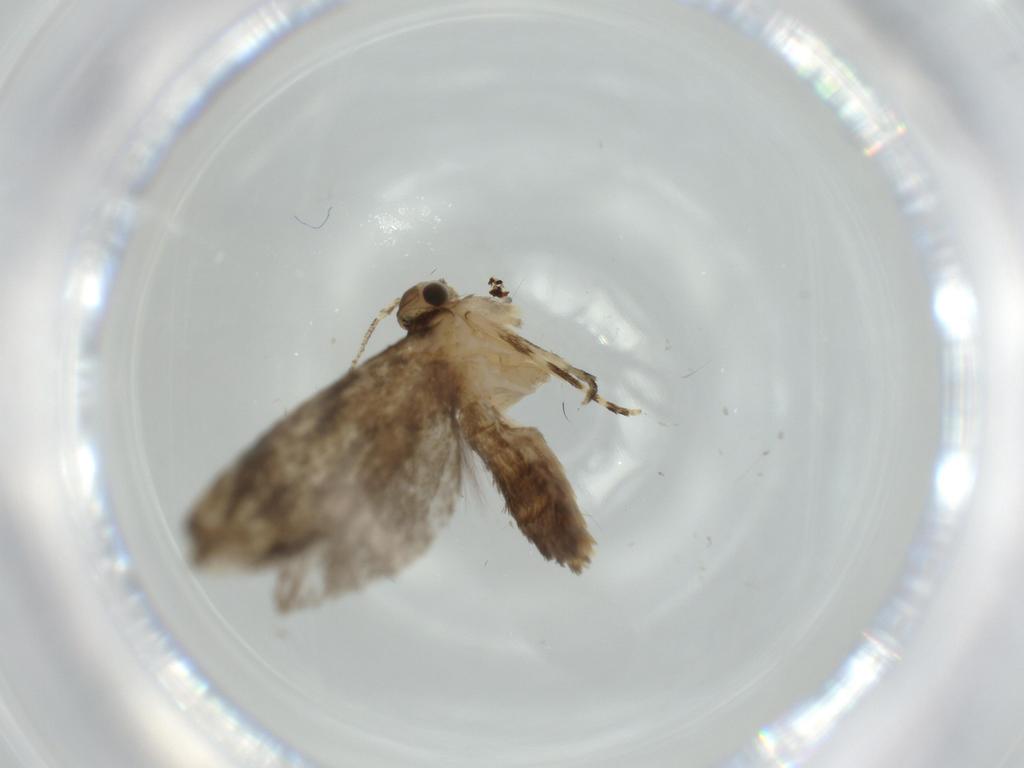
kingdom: Animalia
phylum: Arthropoda
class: Insecta
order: Lepidoptera
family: Tineidae
